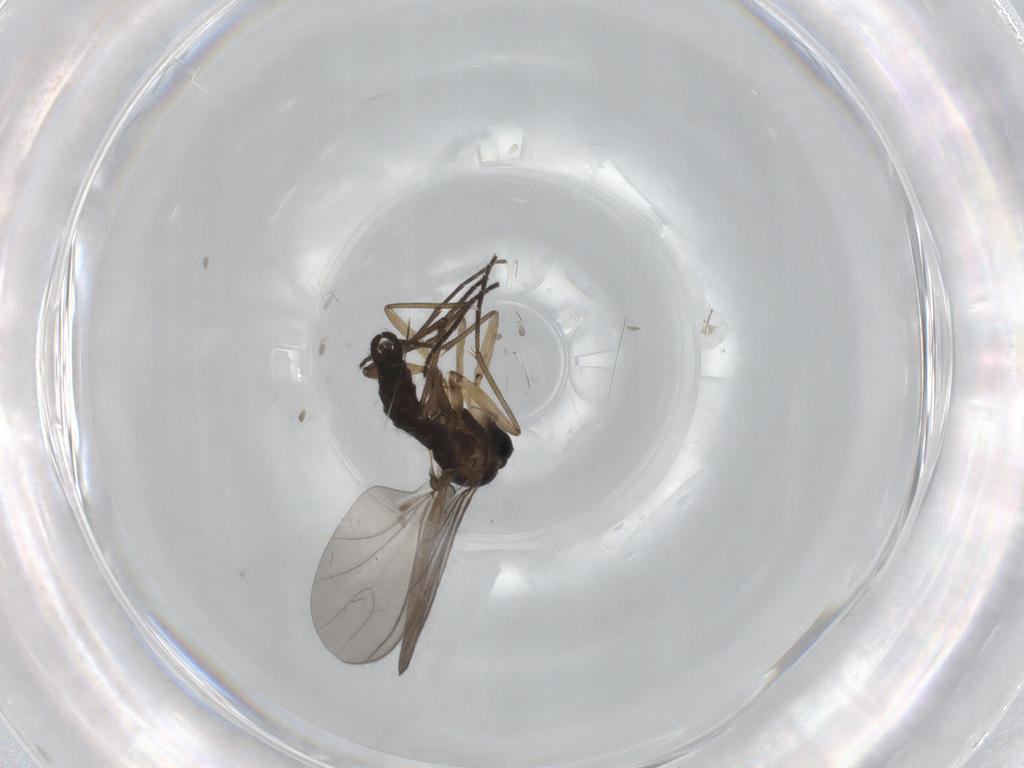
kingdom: Animalia
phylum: Arthropoda
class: Insecta
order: Diptera
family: Sciaridae
